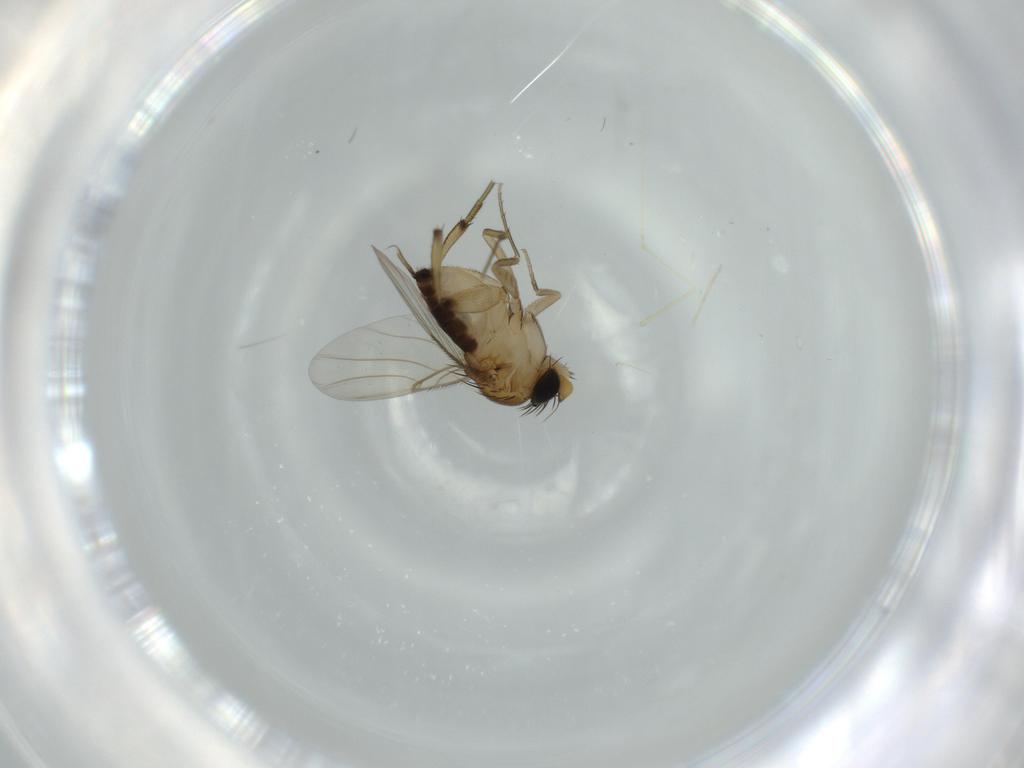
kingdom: Animalia
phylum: Arthropoda
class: Insecta
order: Diptera
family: Cecidomyiidae
